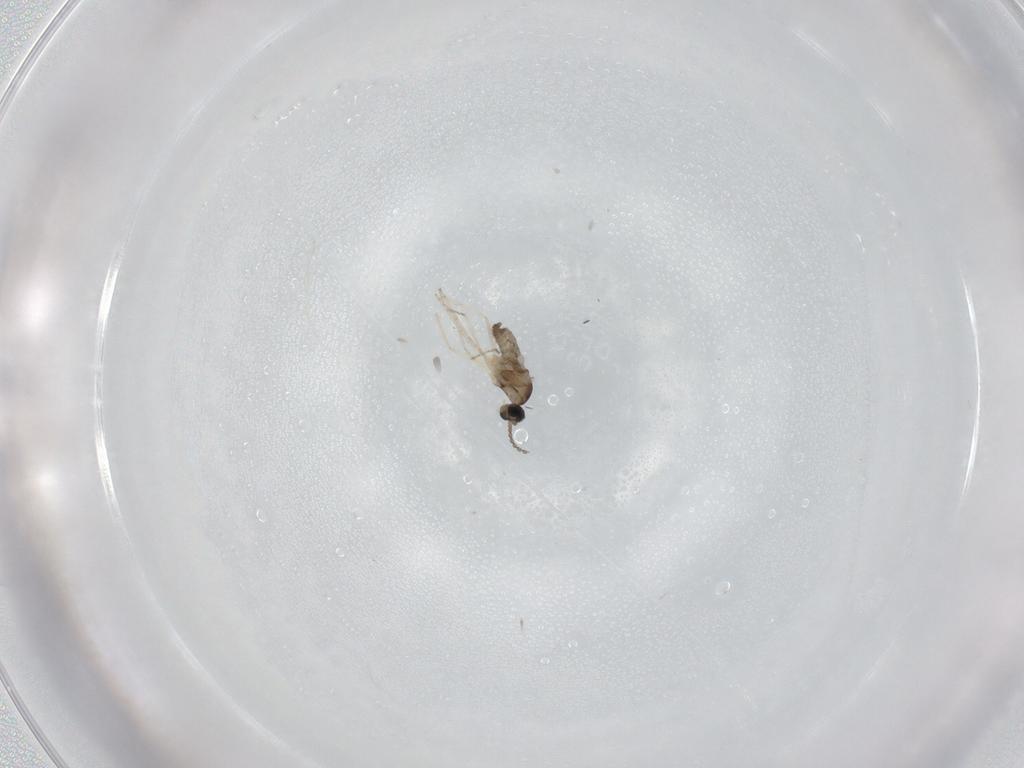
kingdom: Animalia
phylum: Arthropoda
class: Insecta
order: Diptera
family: Cecidomyiidae
